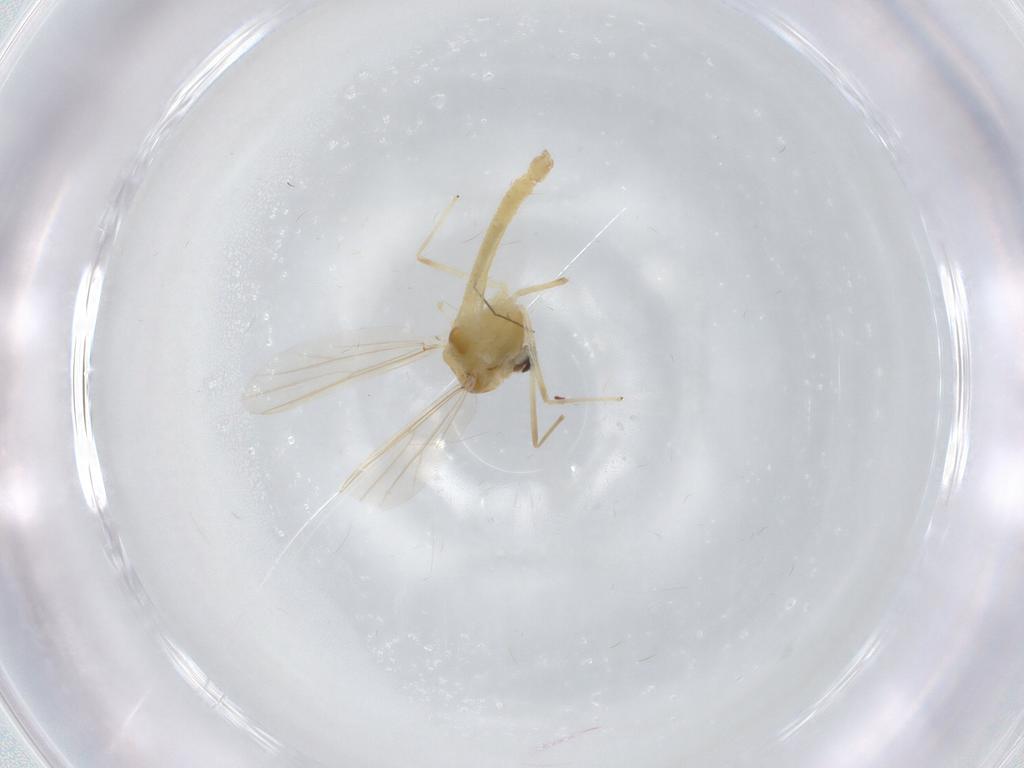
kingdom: Animalia
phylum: Arthropoda
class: Insecta
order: Diptera
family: Chironomidae
